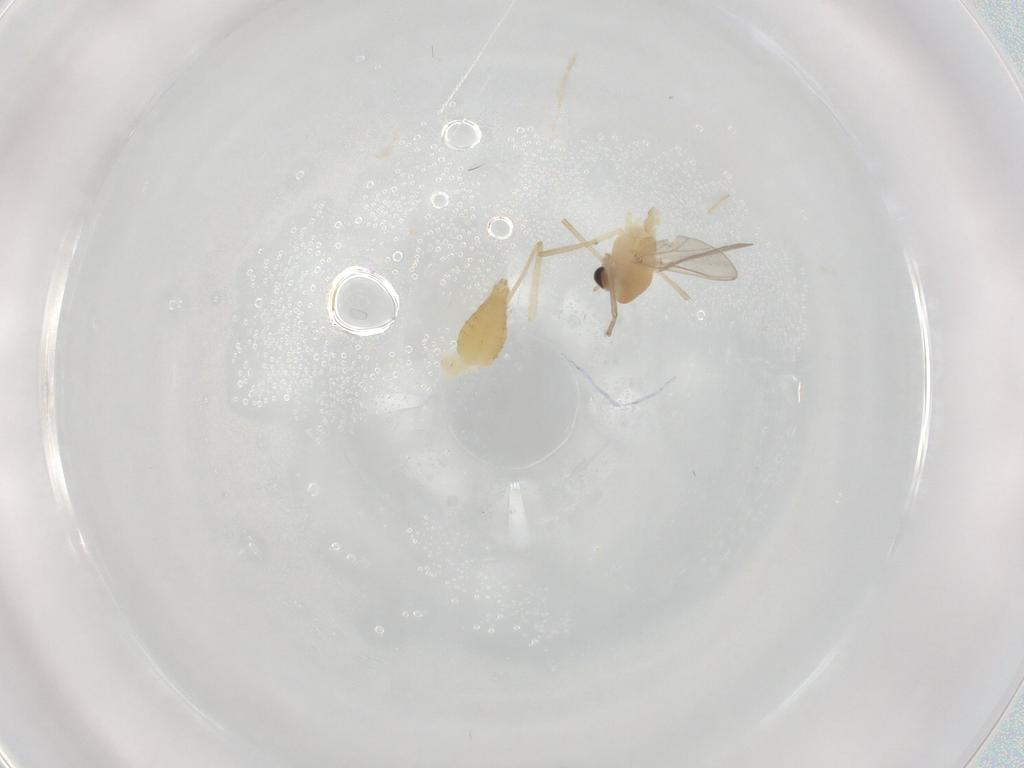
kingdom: Animalia
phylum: Arthropoda
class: Insecta
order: Diptera
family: Chironomidae
